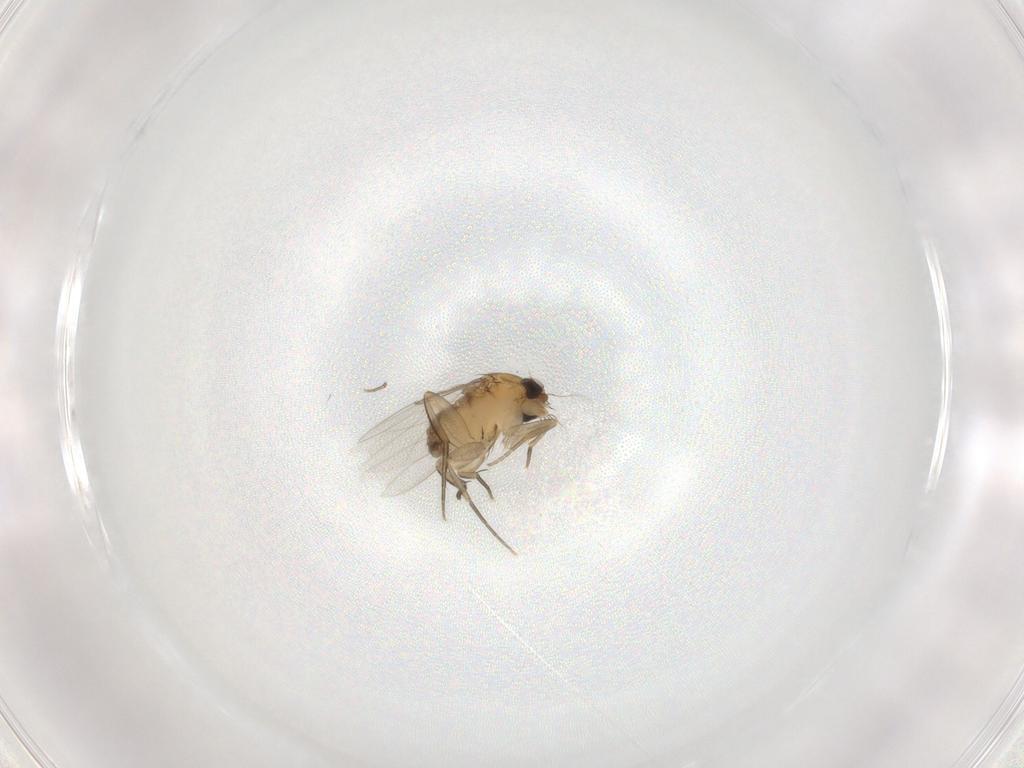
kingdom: Animalia
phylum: Arthropoda
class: Insecta
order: Diptera
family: Phoridae
